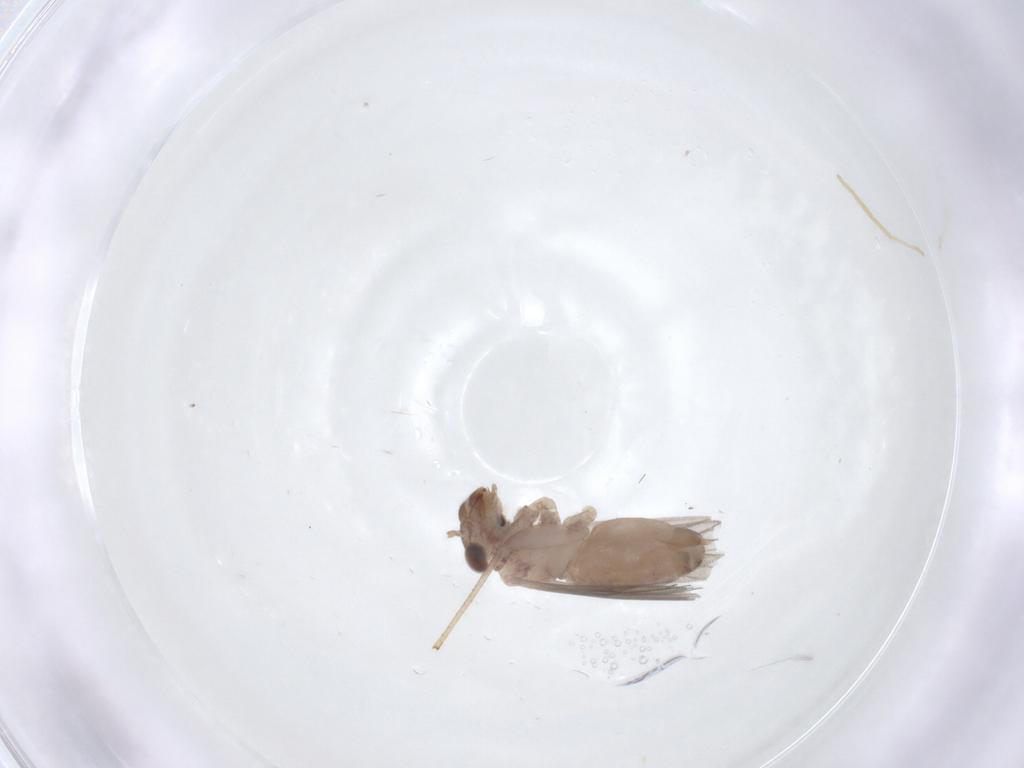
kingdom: Animalia
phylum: Arthropoda
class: Insecta
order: Psocodea
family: Lepidopsocidae
